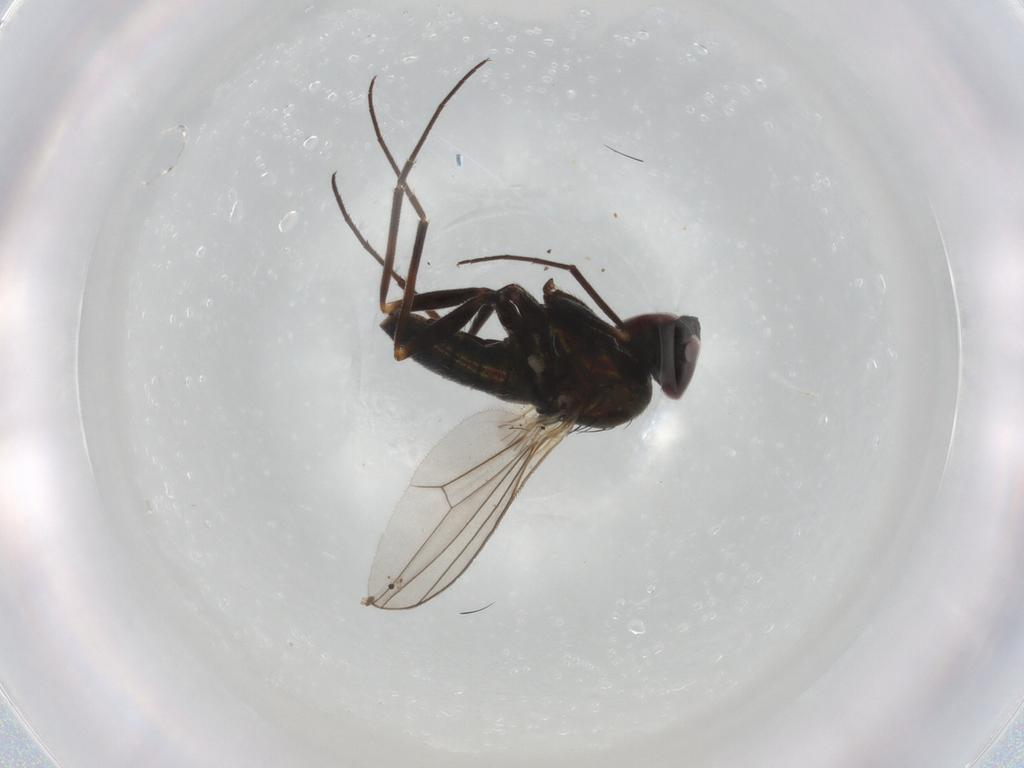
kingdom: Animalia
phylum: Arthropoda
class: Insecta
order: Diptera
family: Dolichopodidae
